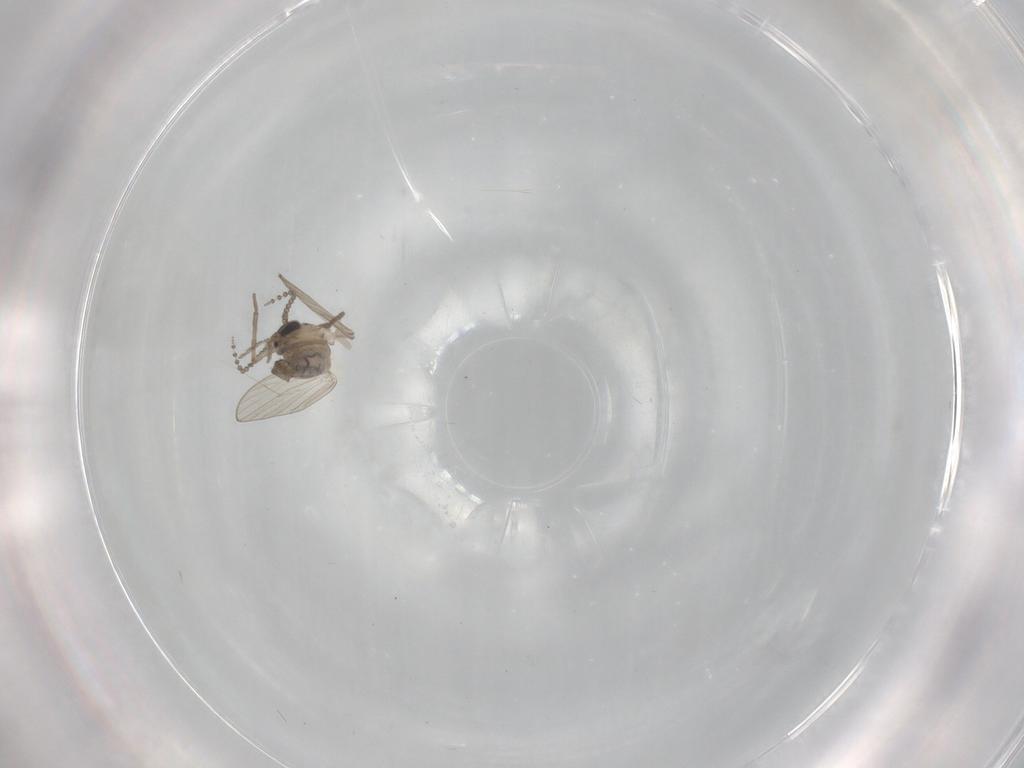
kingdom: Animalia
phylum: Arthropoda
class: Insecta
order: Diptera
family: Psychodidae
